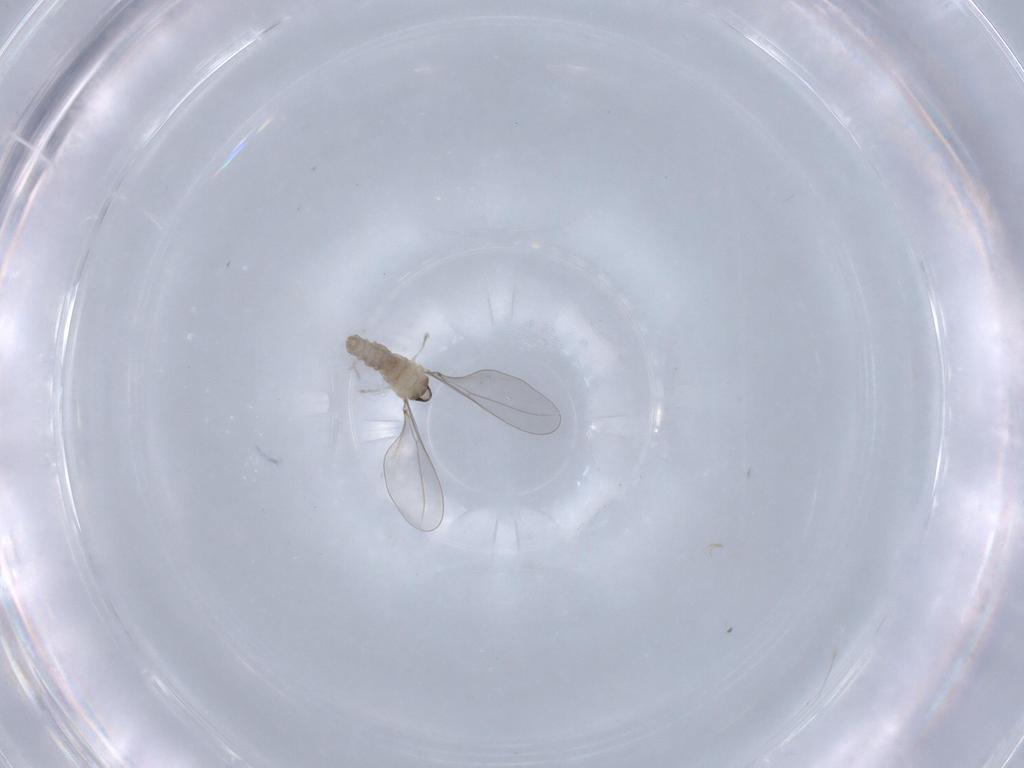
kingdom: Animalia
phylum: Arthropoda
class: Insecta
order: Diptera
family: Cecidomyiidae
